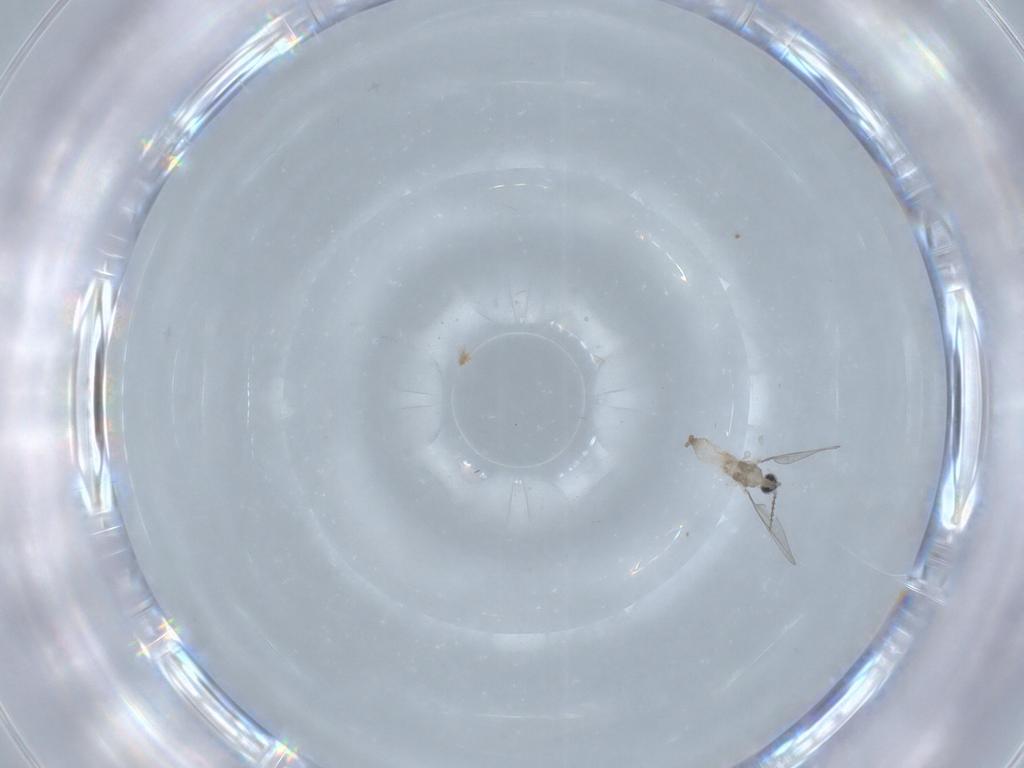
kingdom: Animalia
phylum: Arthropoda
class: Insecta
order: Diptera
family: Cecidomyiidae
